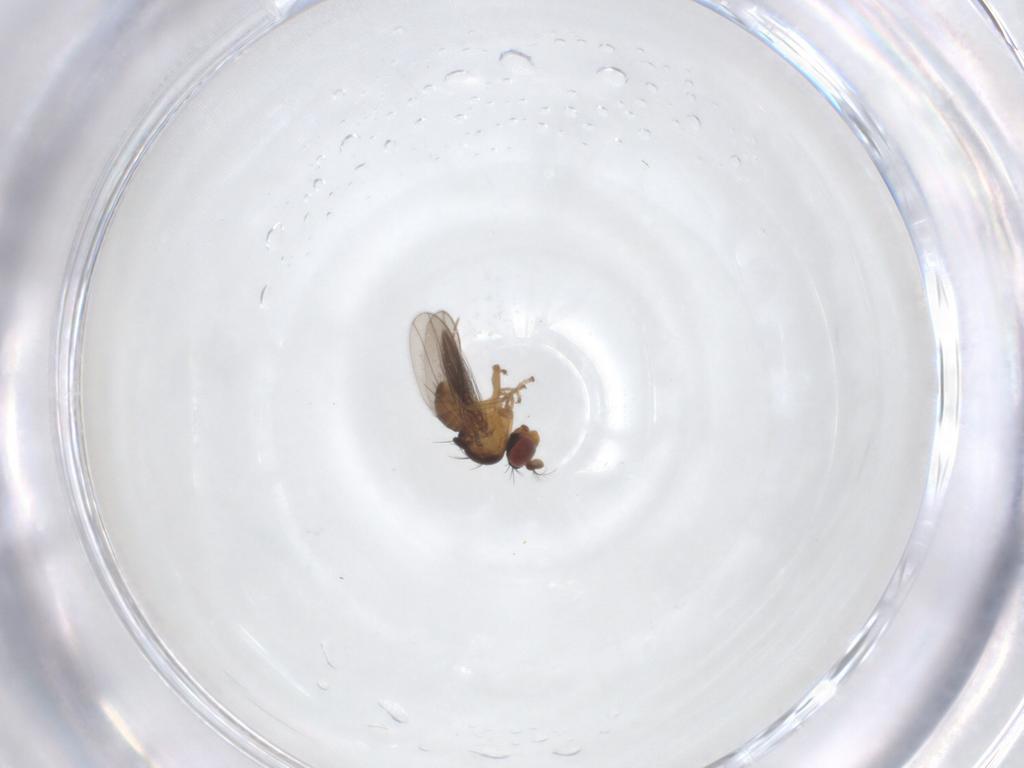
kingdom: Animalia
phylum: Arthropoda
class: Insecta
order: Diptera
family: Ephydridae
